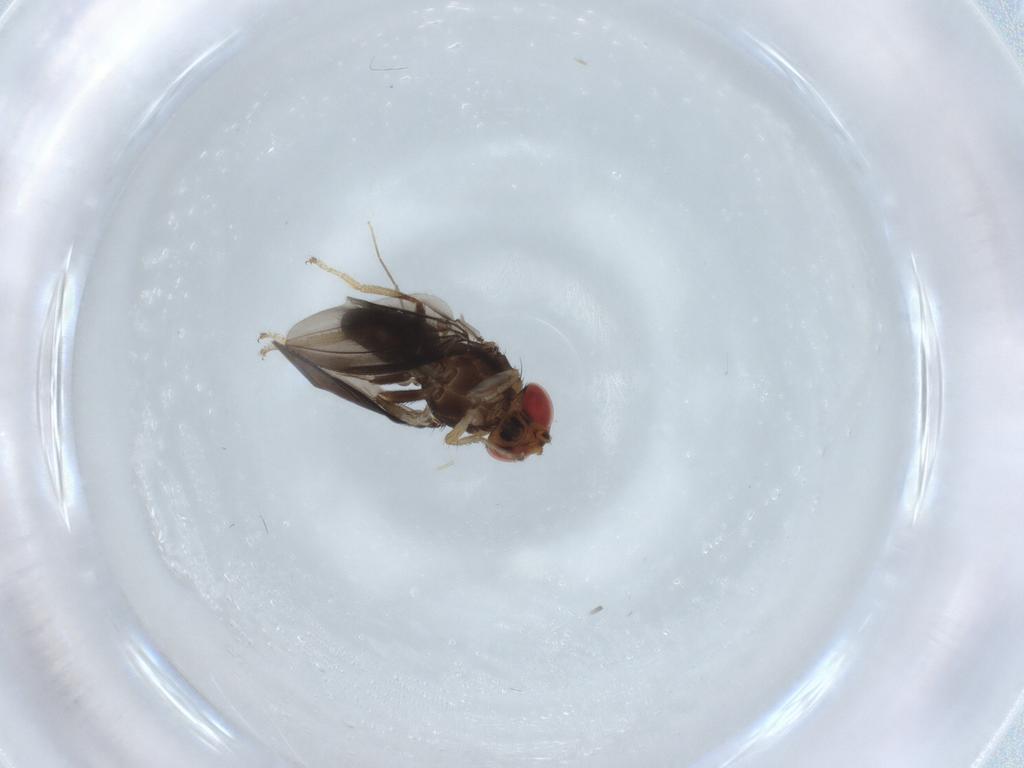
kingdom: Animalia
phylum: Arthropoda
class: Insecta
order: Diptera
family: Drosophilidae
